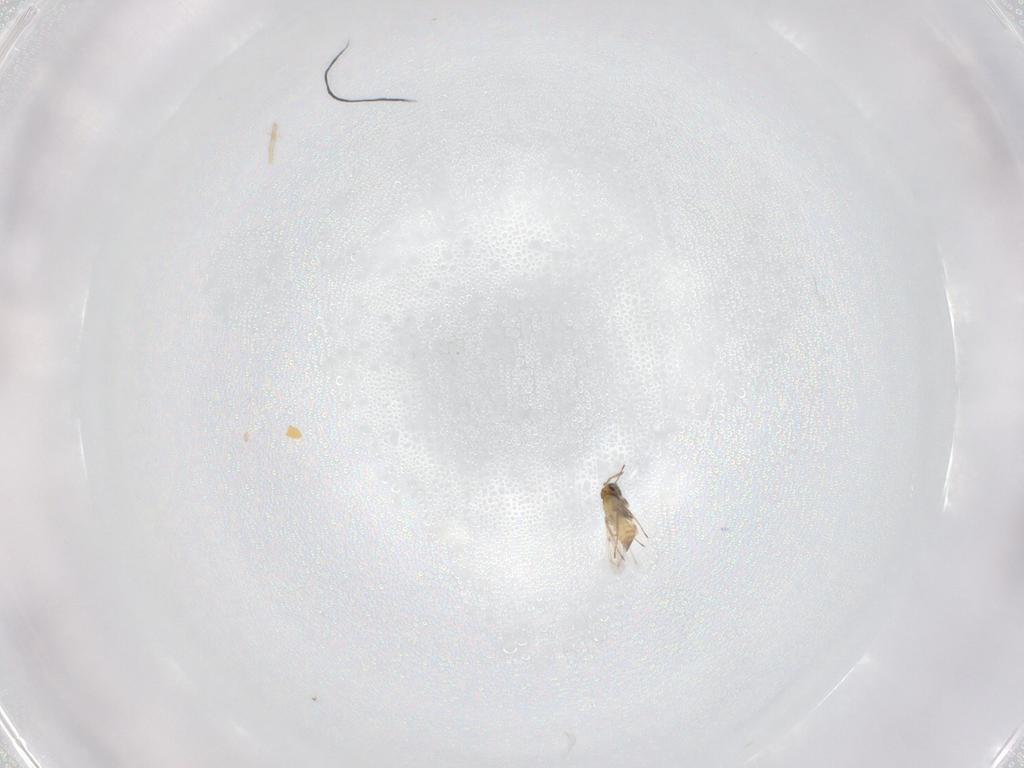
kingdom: Animalia
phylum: Arthropoda
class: Insecta
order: Hymenoptera
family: Trichogrammatidae
